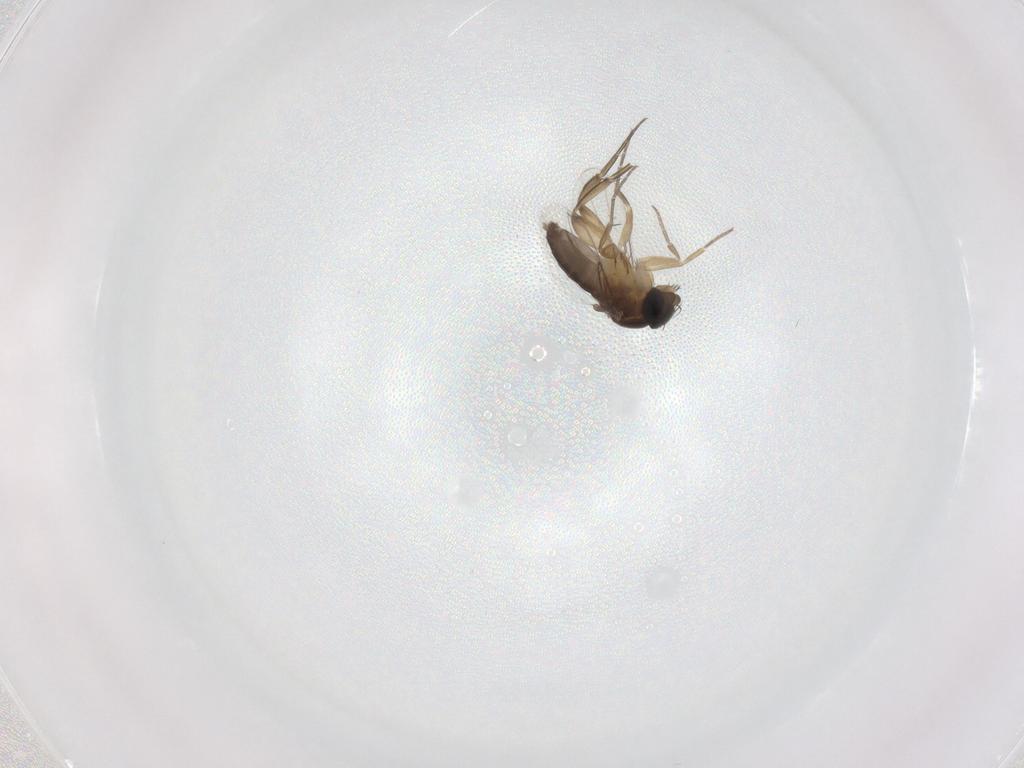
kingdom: Animalia
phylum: Arthropoda
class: Insecta
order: Diptera
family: Phoridae
